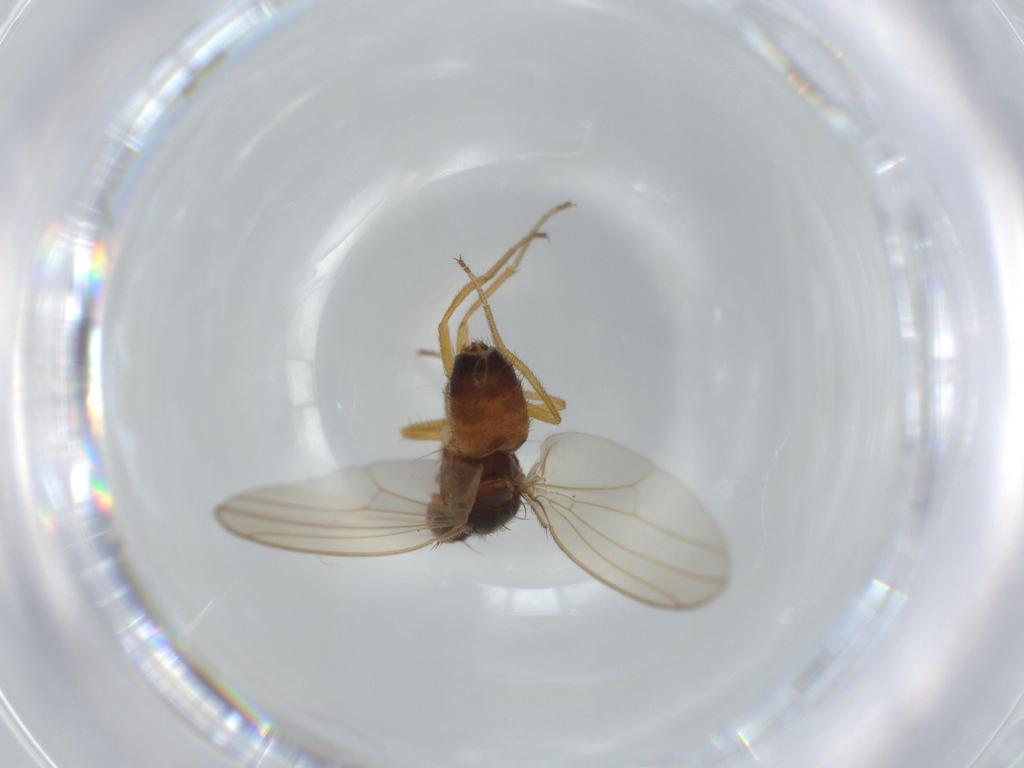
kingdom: Animalia
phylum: Arthropoda
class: Insecta
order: Diptera
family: Drosophilidae
